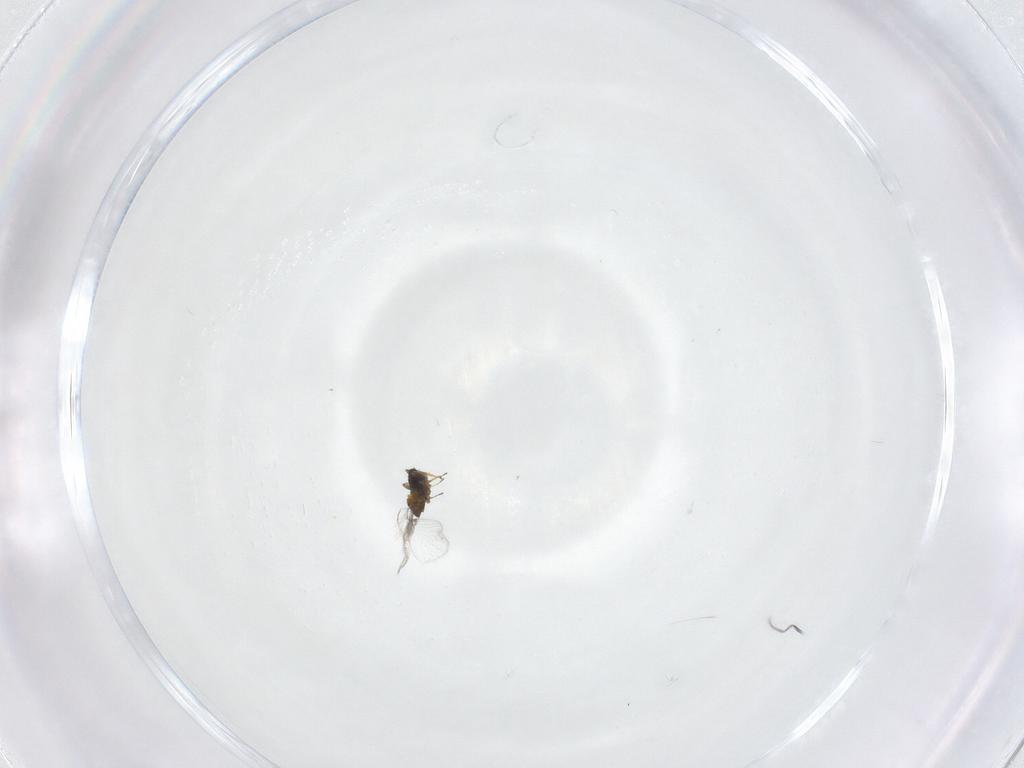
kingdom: Animalia
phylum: Arthropoda
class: Insecta
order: Hymenoptera
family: Trichogrammatidae
